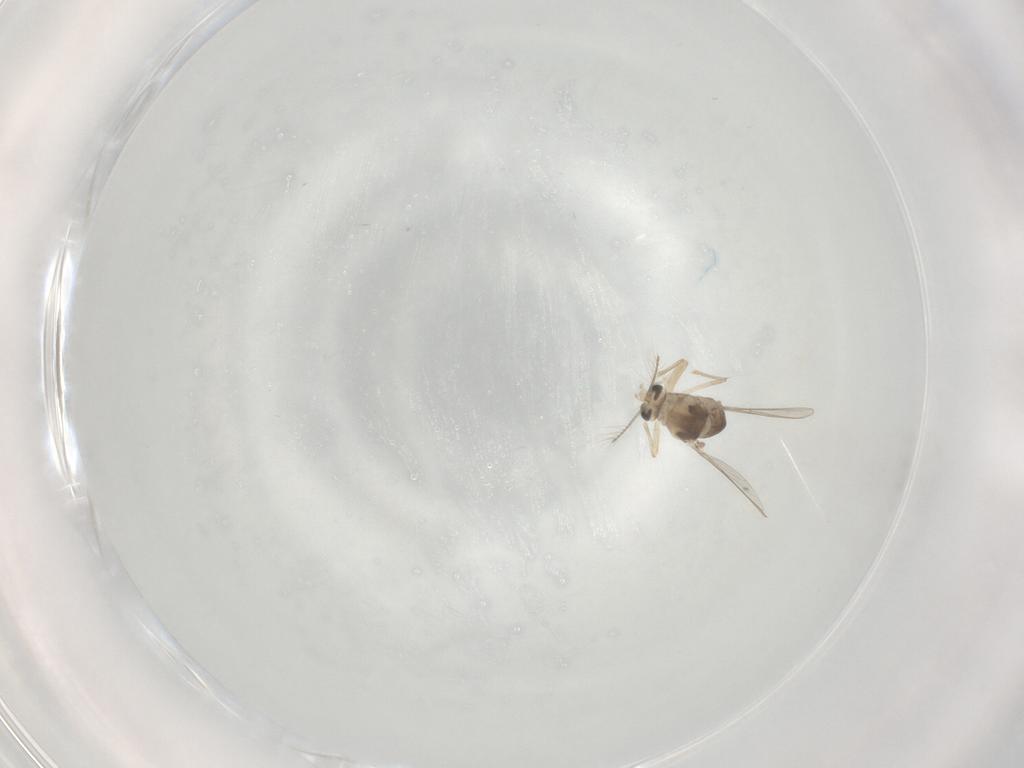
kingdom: Animalia
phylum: Arthropoda
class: Insecta
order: Diptera
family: Chironomidae
